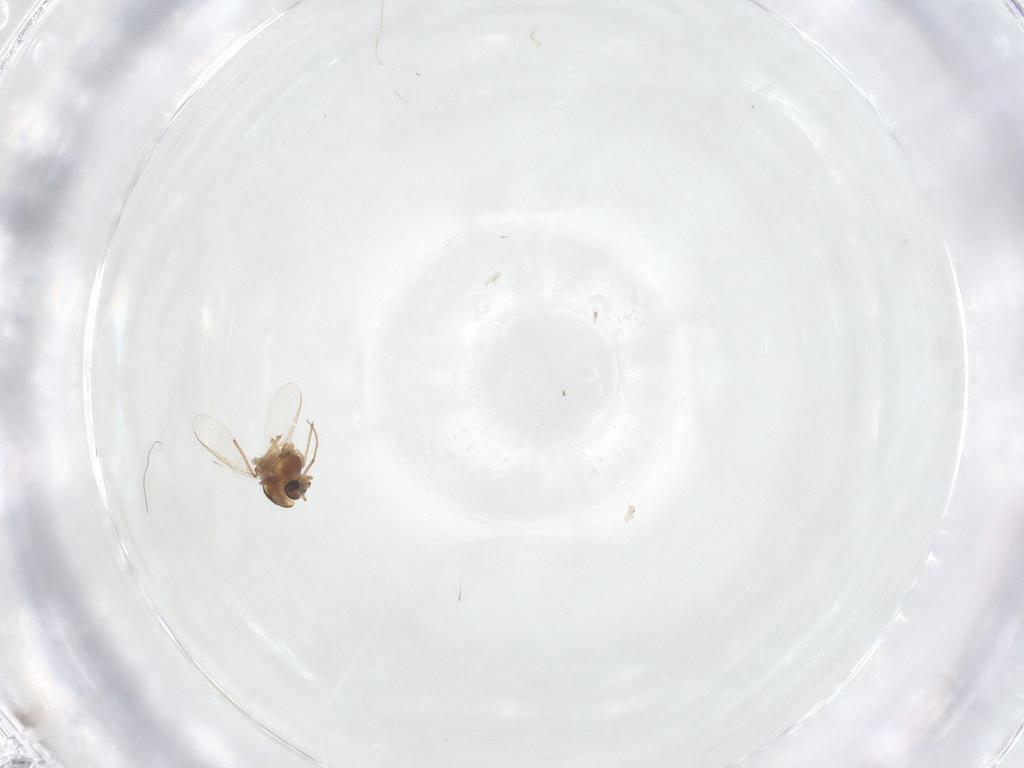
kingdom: Animalia
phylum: Arthropoda
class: Insecta
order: Diptera
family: Chironomidae
